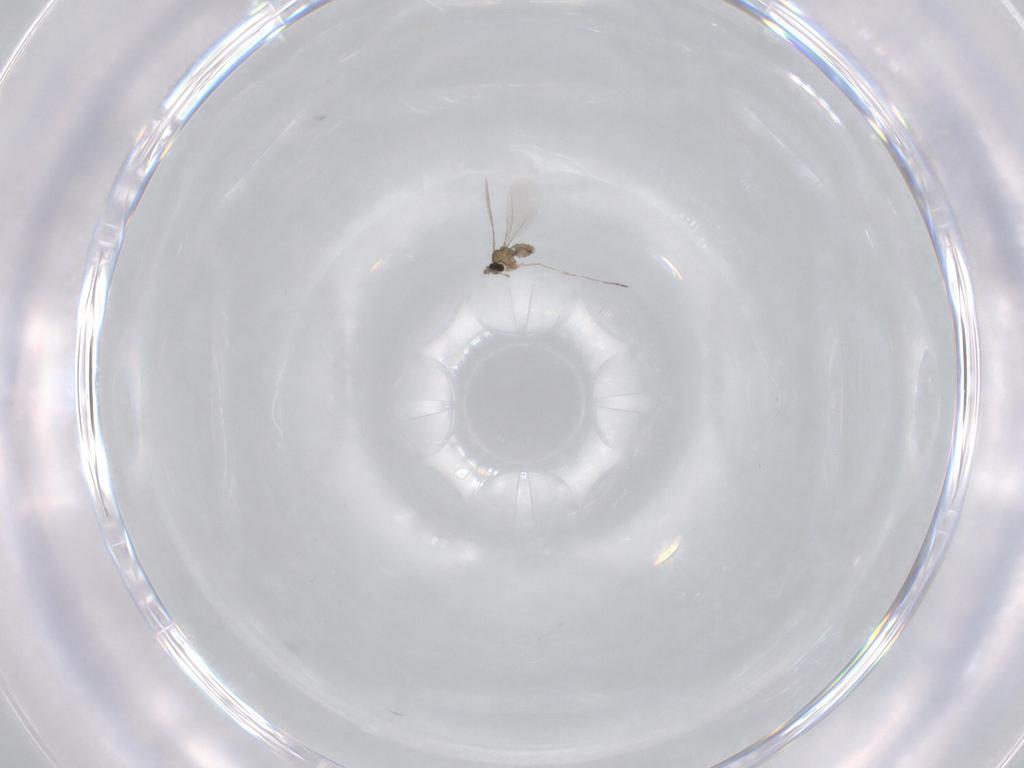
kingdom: Animalia
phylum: Arthropoda
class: Insecta
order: Diptera
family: Cecidomyiidae
